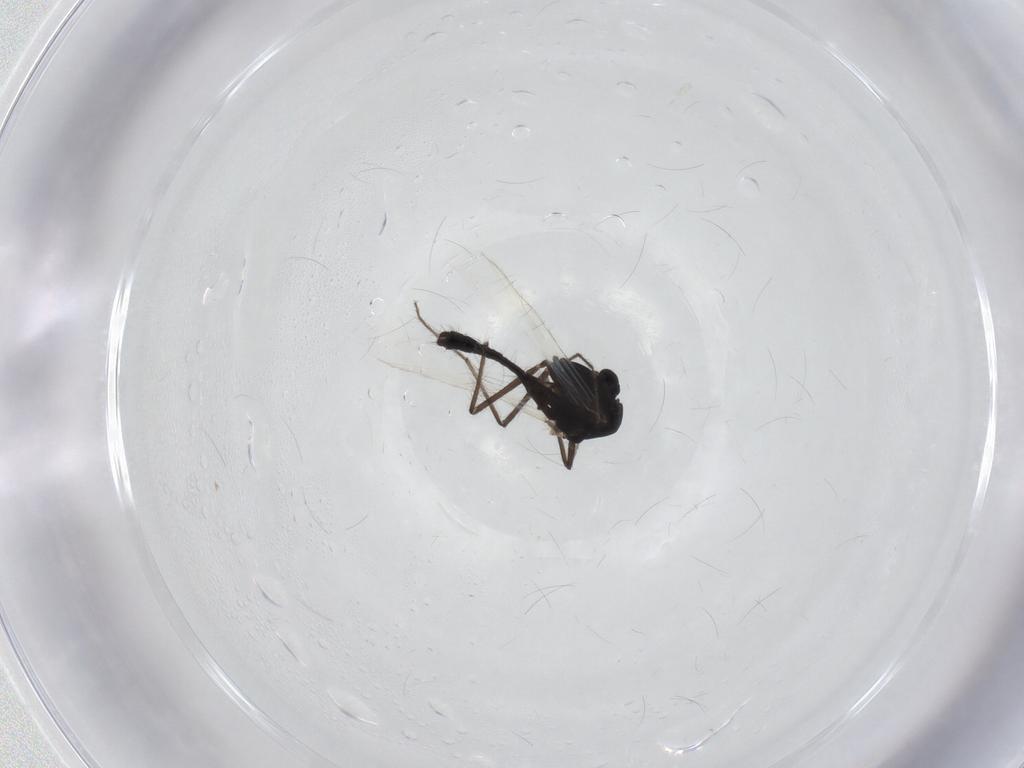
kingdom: Animalia
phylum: Arthropoda
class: Insecta
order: Diptera
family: Chironomidae
